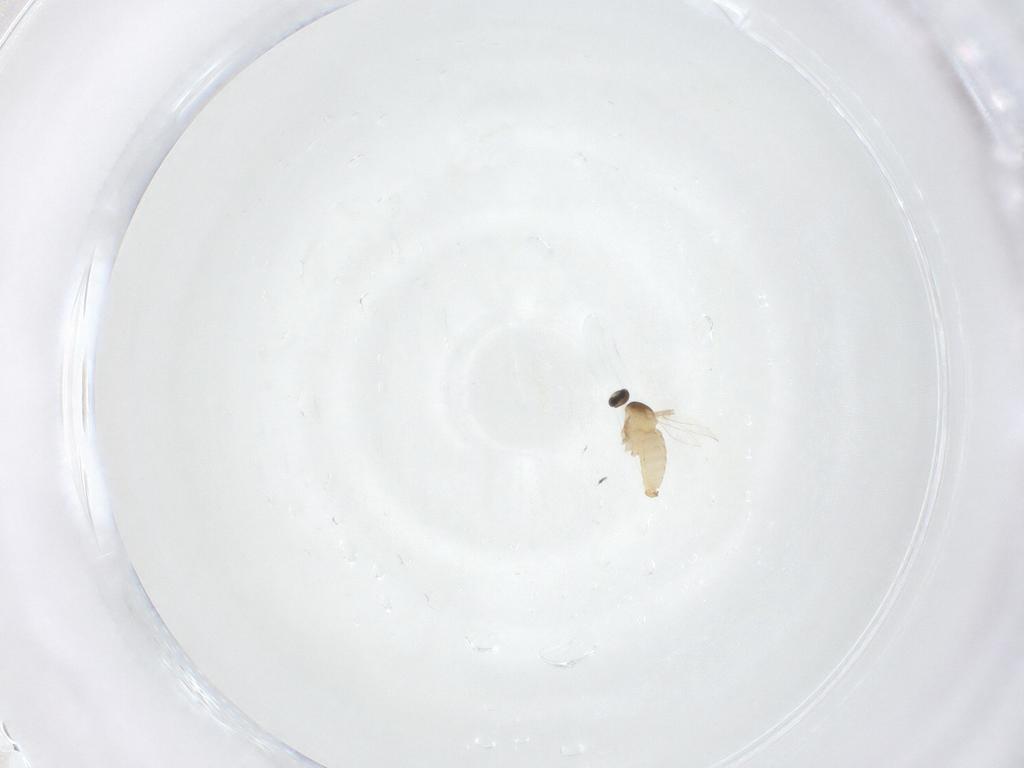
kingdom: Animalia
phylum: Arthropoda
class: Insecta
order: Diptera
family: Cecidomyiidae
